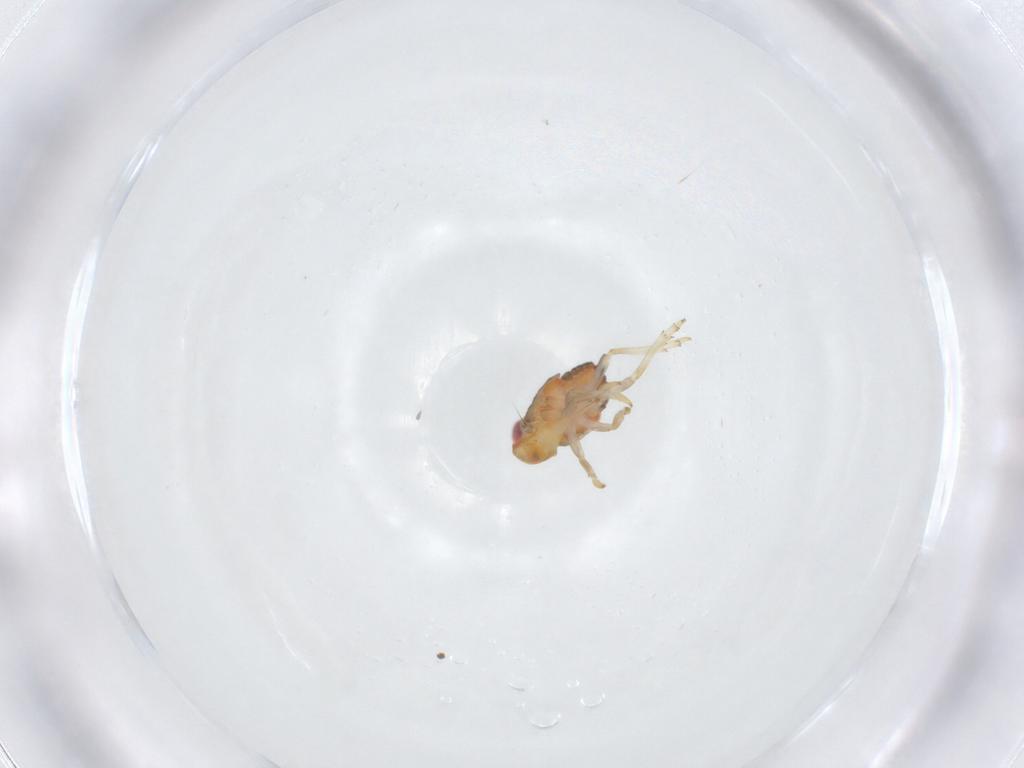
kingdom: Animalia
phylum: Arthropoda
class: Insecta
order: Hemiptera
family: Issidae
